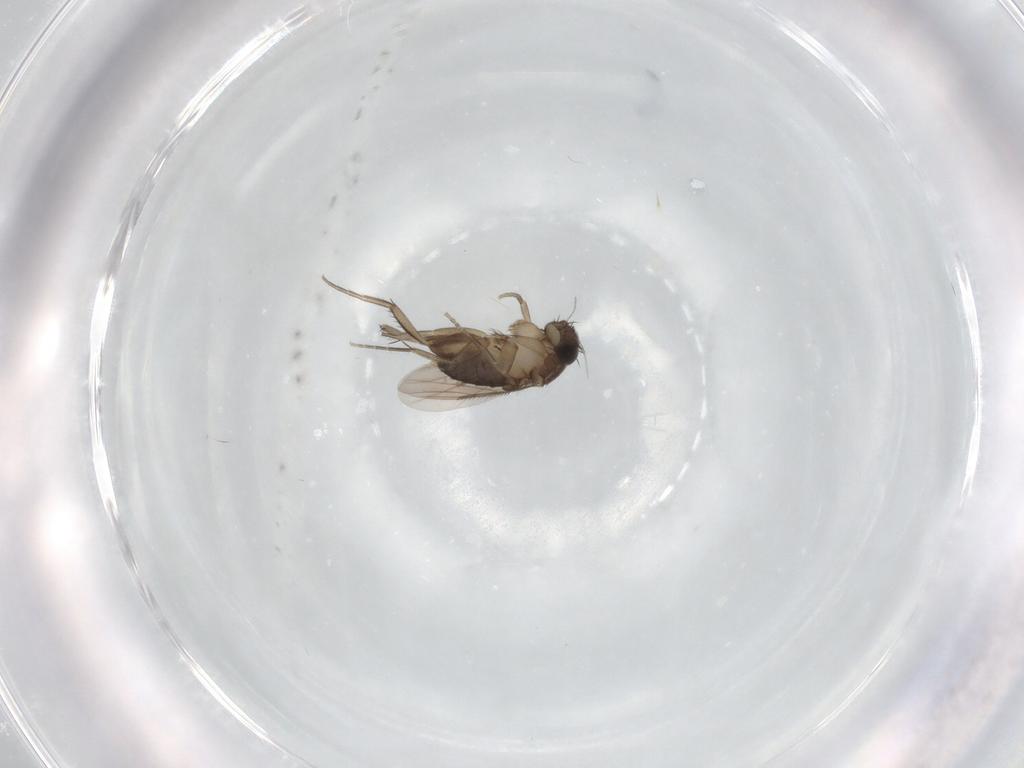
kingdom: Animalia
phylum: Arthropoda
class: Insecta
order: Diptera
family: Phoridae
